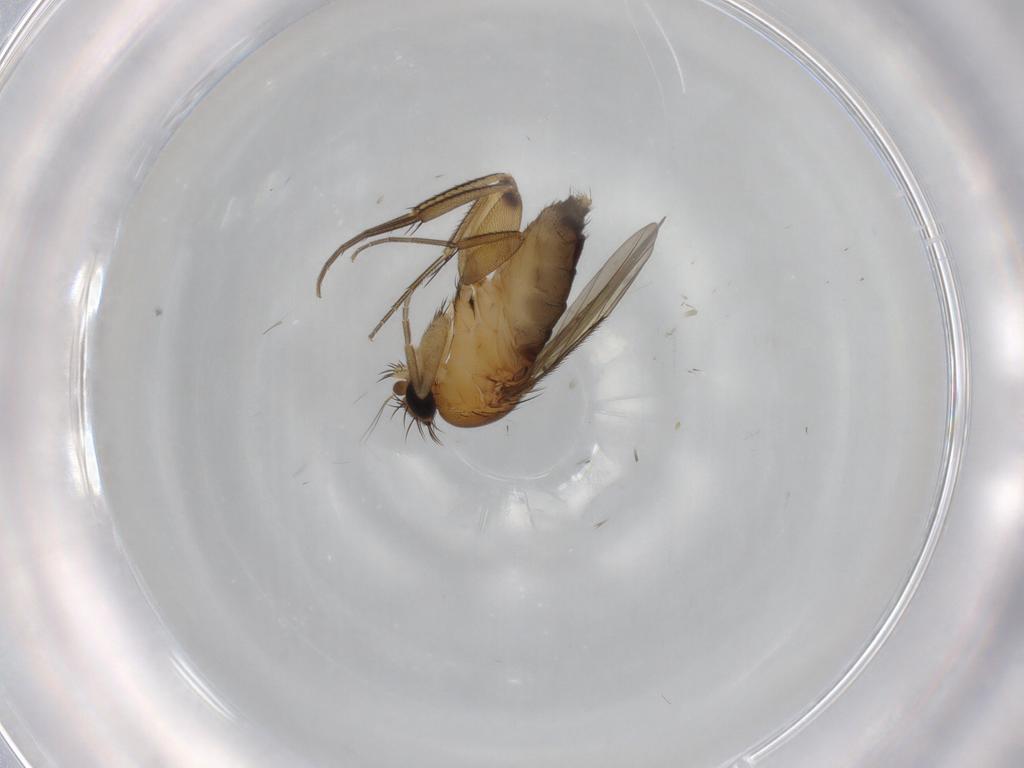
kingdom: Animalia
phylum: Arthropoda
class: Insecta
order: Diptera
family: Phoridae
